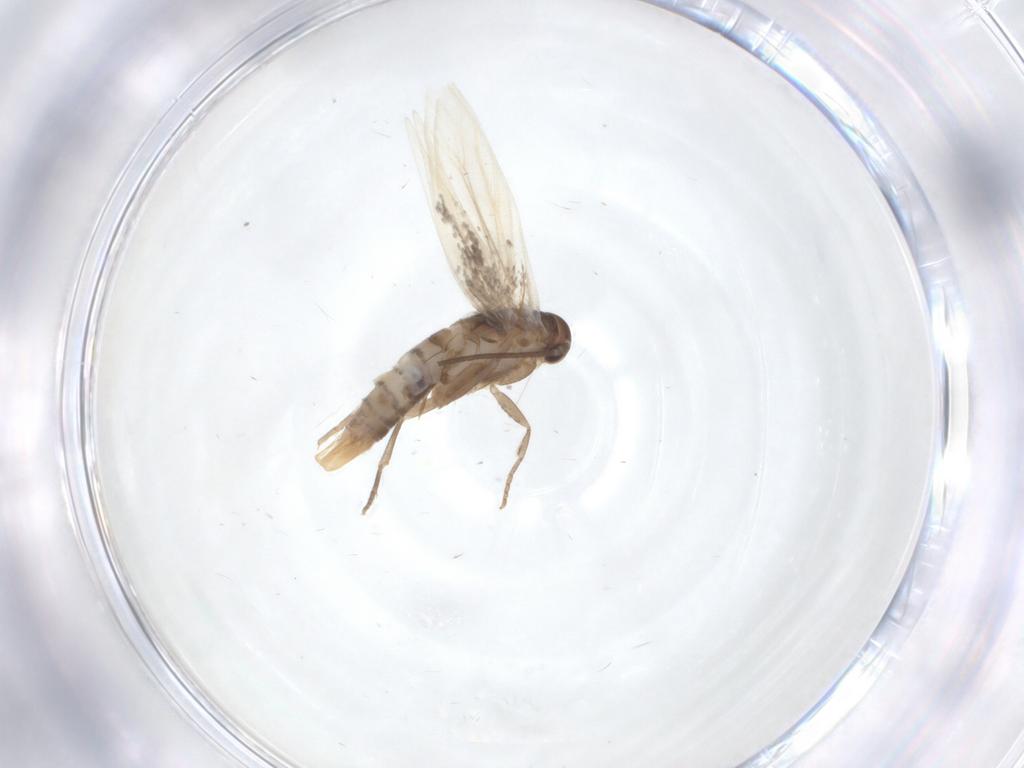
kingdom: Animalia
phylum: Arthropoda
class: Insecta
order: Lepidoptera
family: Elachistidae
